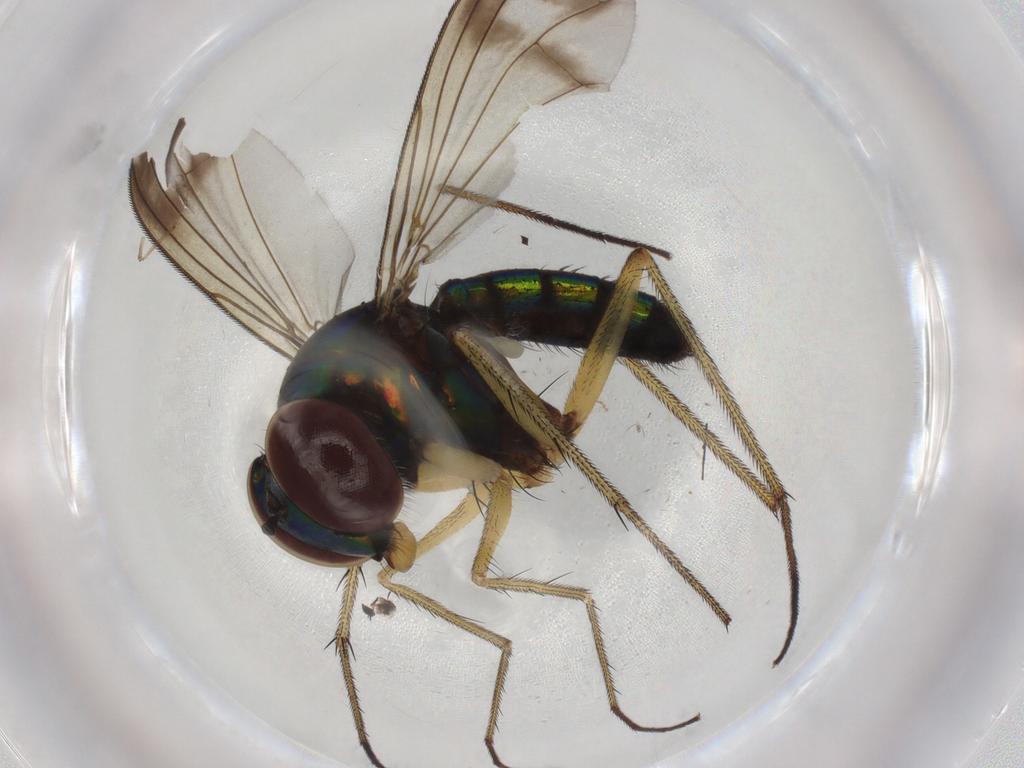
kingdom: Animalia
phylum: Arthropoda
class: Insecta
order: Diptera
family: Dolichopodidae
